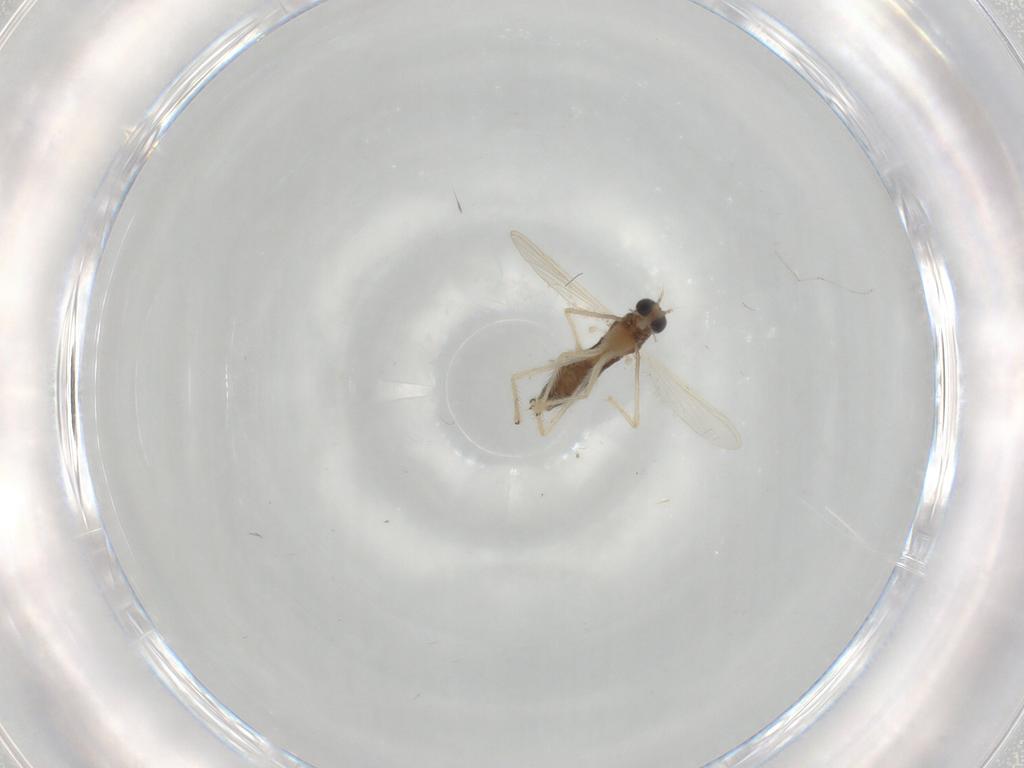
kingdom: Animalia
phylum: Arthropoda
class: Insecta
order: Diptera
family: Chironomidae
